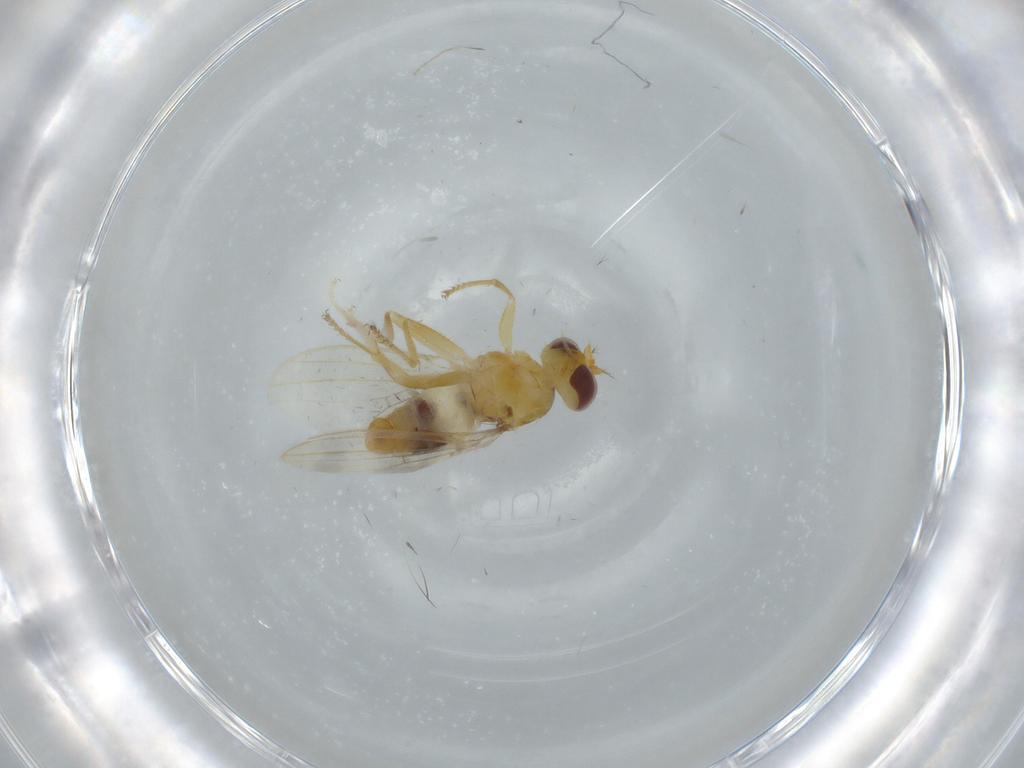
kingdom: Animalia
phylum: Arthropoda
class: Insecta
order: Diptera
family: Periscelididae
